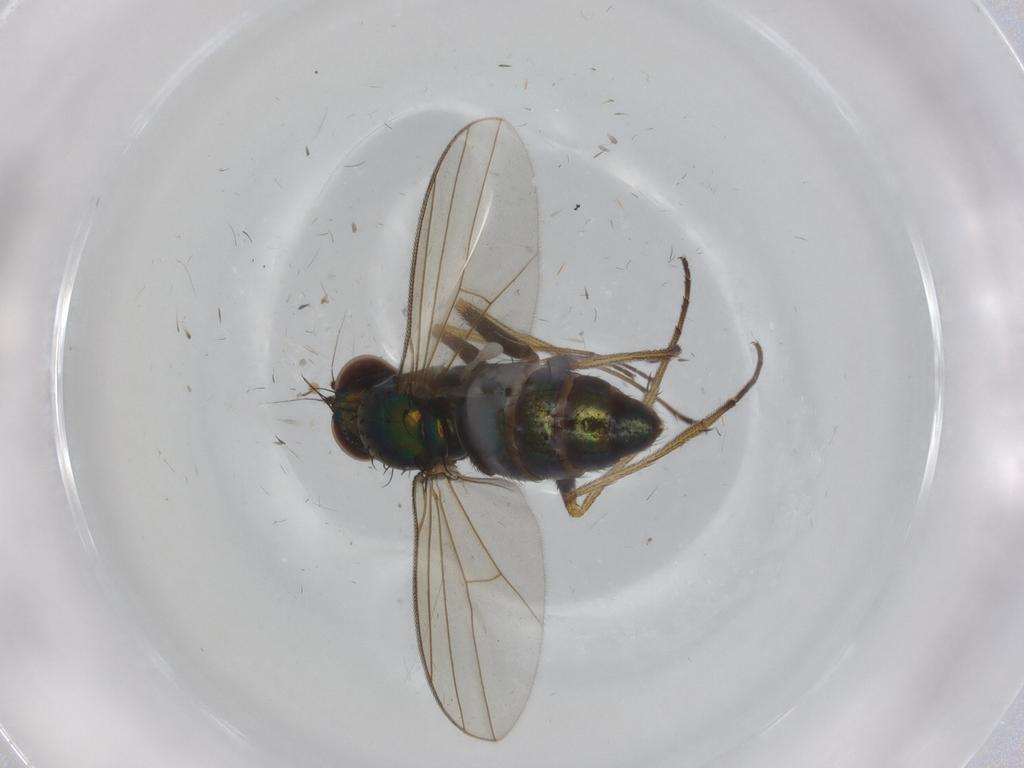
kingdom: Animalia
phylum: Arthropoda
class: Insecta
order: Diptera
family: Dolichopodidae
